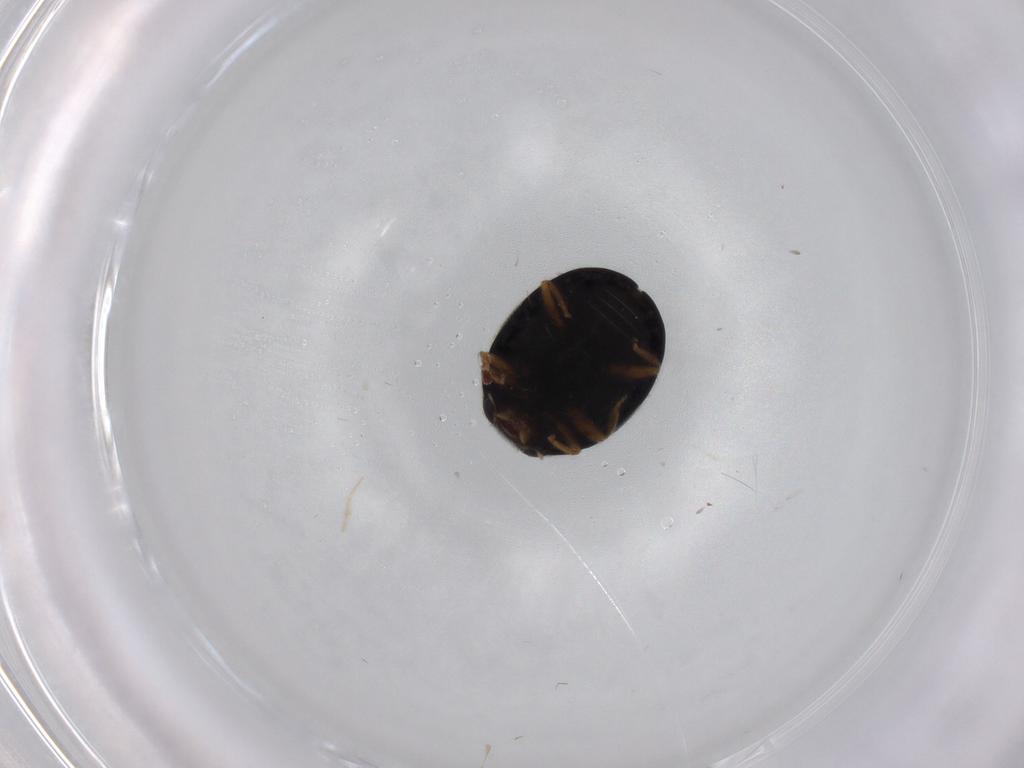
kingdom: Animalia
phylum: Arthropoda
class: Insecta
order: Coleoptera
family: Coccinellidae
